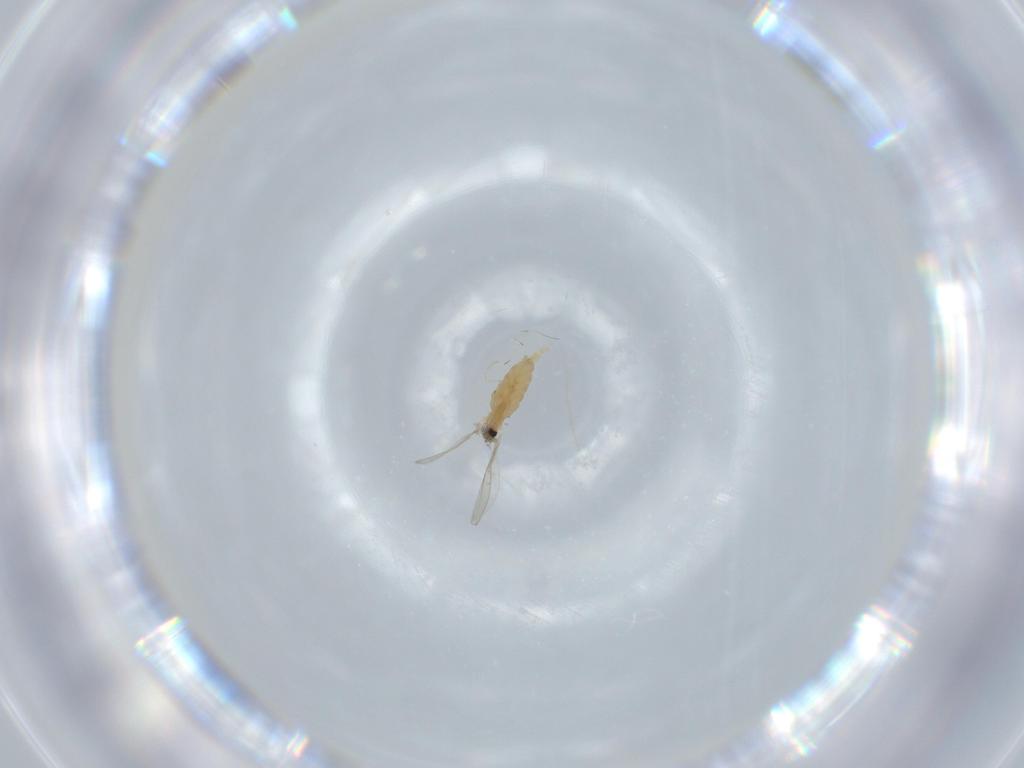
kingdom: Animalia
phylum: Arthropoda
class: Insecta
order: Diptera
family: Cecidomyiidae
